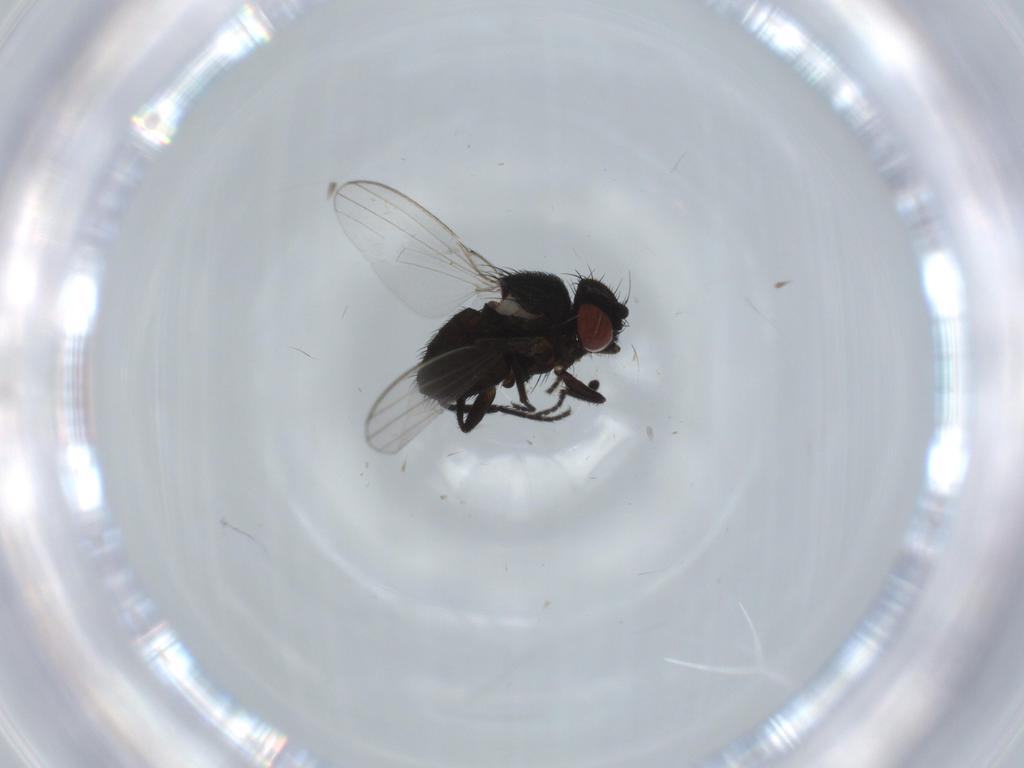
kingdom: Animalia
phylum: Arthropoda
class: Insecta
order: Diptera
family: Milichiidae
